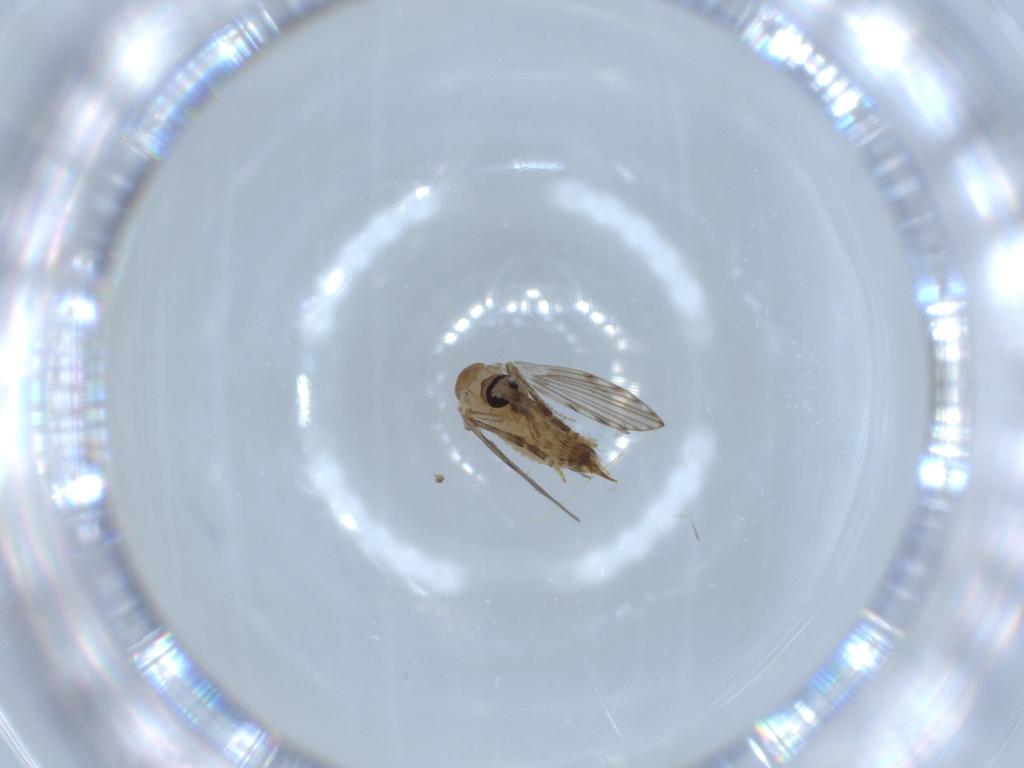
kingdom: Animalia
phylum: Arthropoda
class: Insecta
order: Diptera
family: Psychodidae
